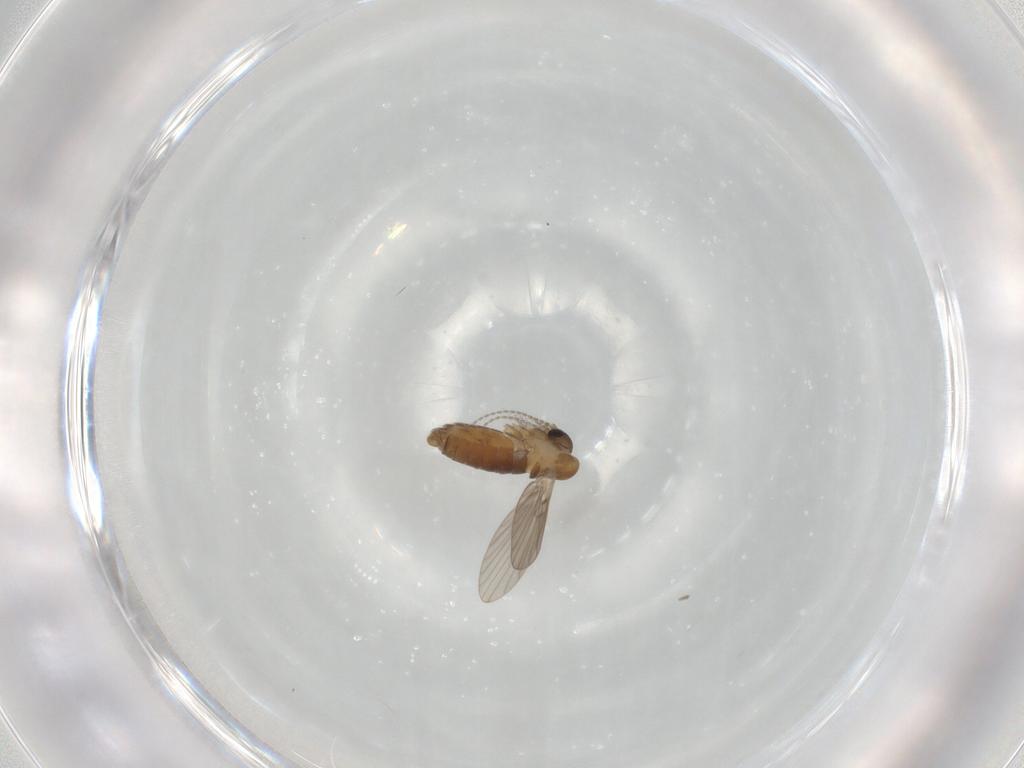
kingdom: Animalia
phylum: Arthropoda
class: Insecta
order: Diptera
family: Psychodidae
